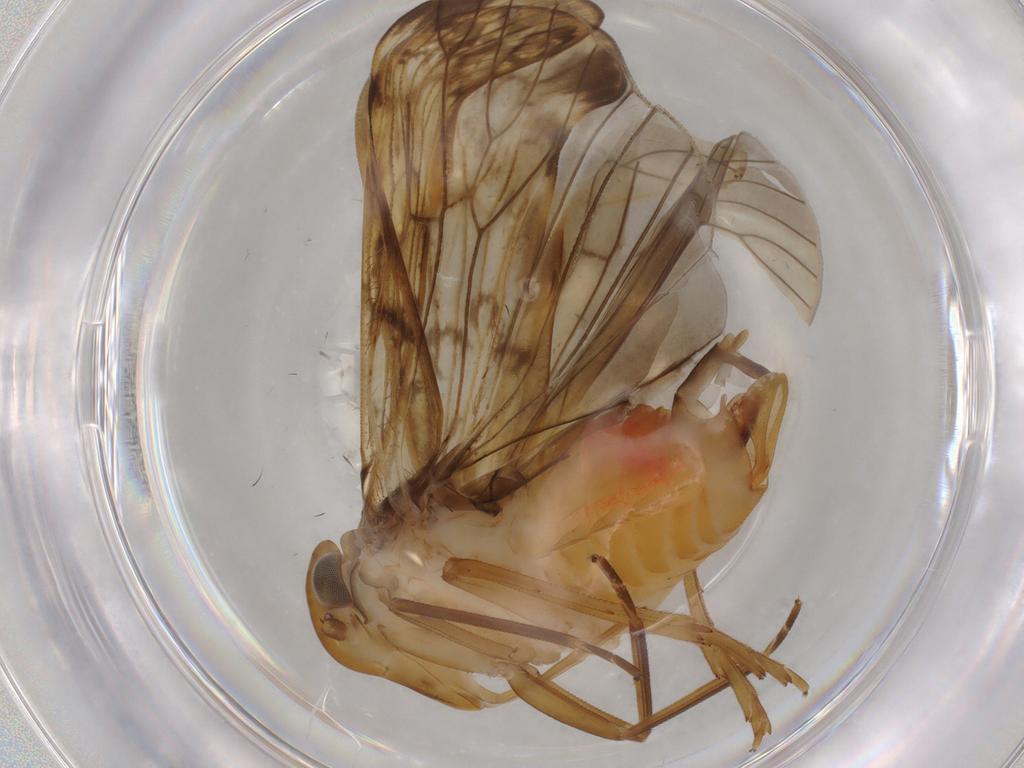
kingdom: Animalia
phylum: Arthropoda
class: Insecta
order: Hemiptera
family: Cixiidae
